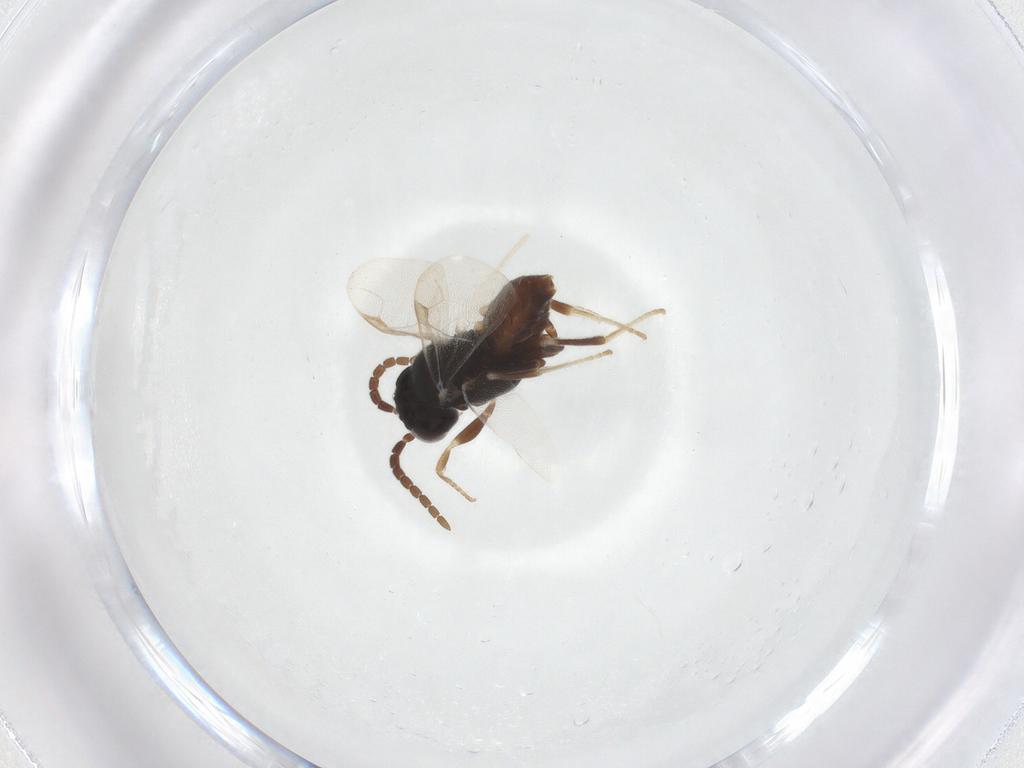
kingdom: Animalia
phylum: Arthropoda
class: Insecta
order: Hymenoptera
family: Dryinidae
